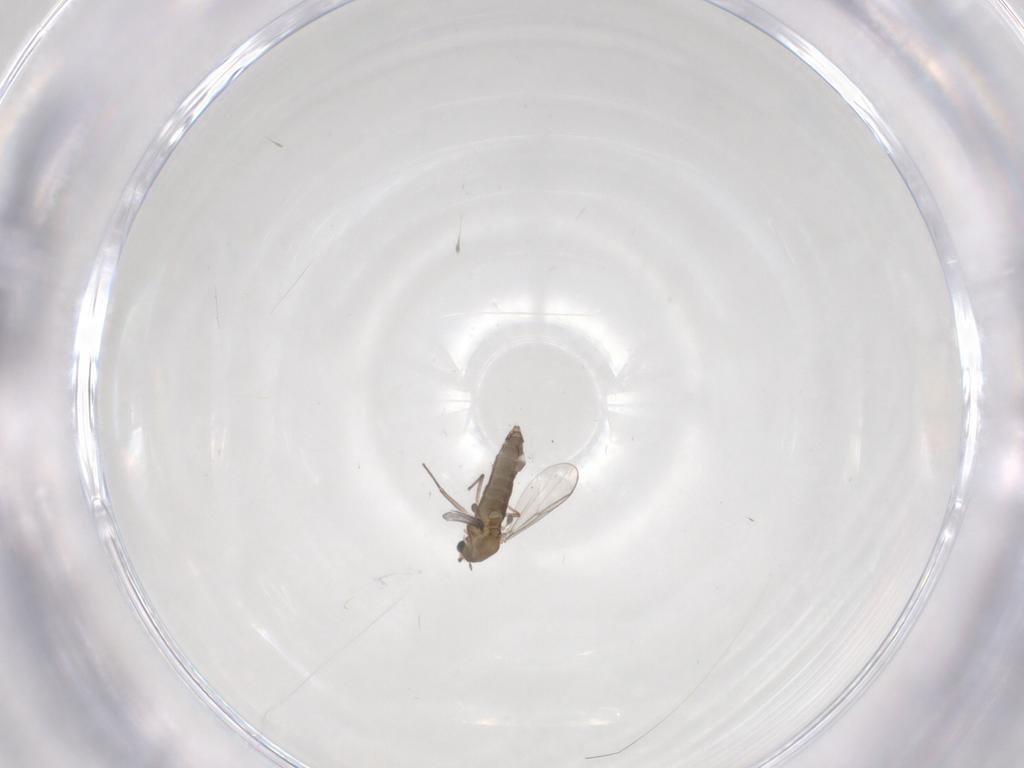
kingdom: Animalia
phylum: Arthropoda
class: Insecta
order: Diptera
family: Chironomidae
